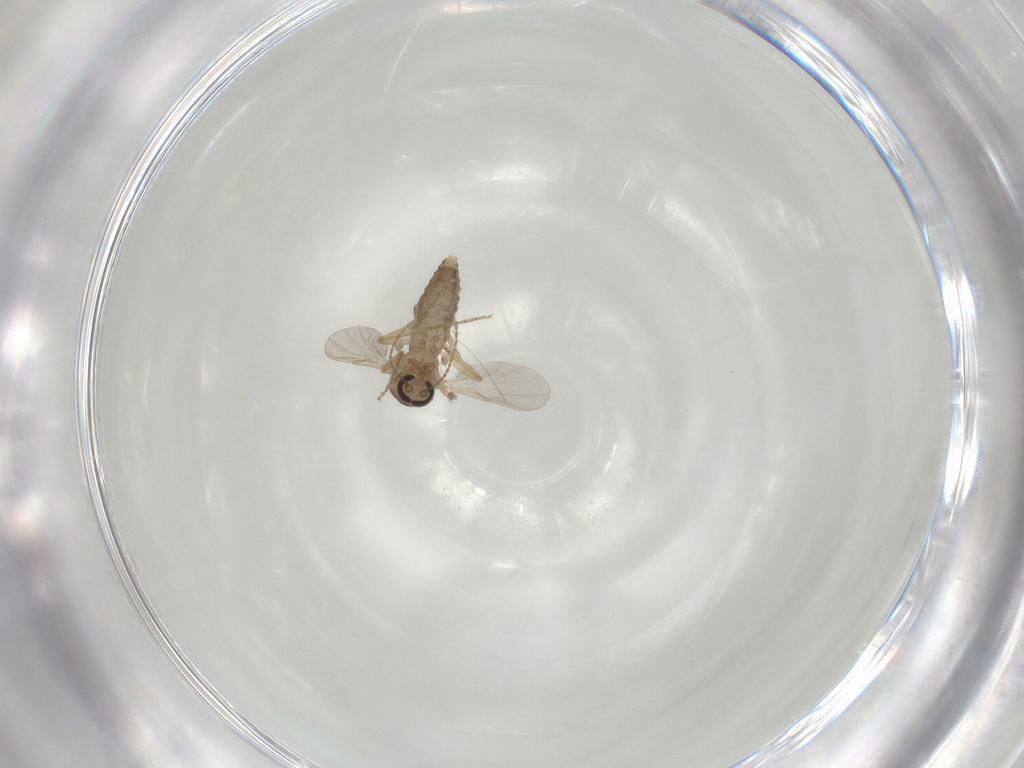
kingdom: Animalia
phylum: Arthropoda
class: Insecta
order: Diptera
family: Ceratopogonidae
